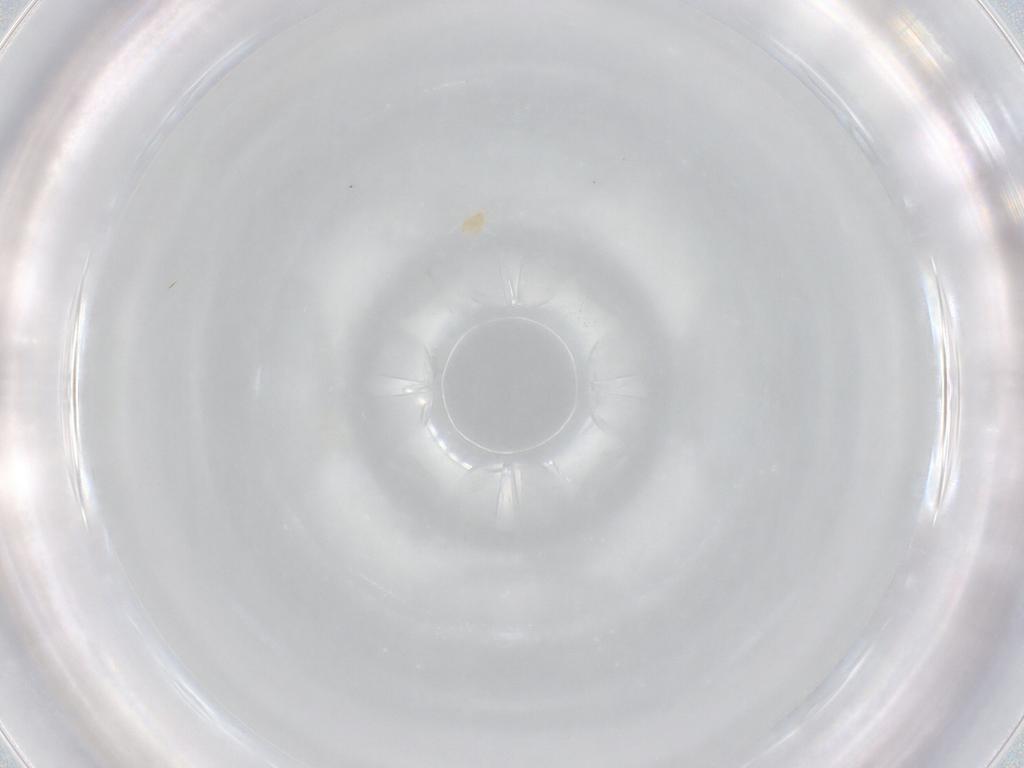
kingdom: Animalia
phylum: Arthropoda
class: Arachnida
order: Mesostigmata
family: Phytoseiidae
